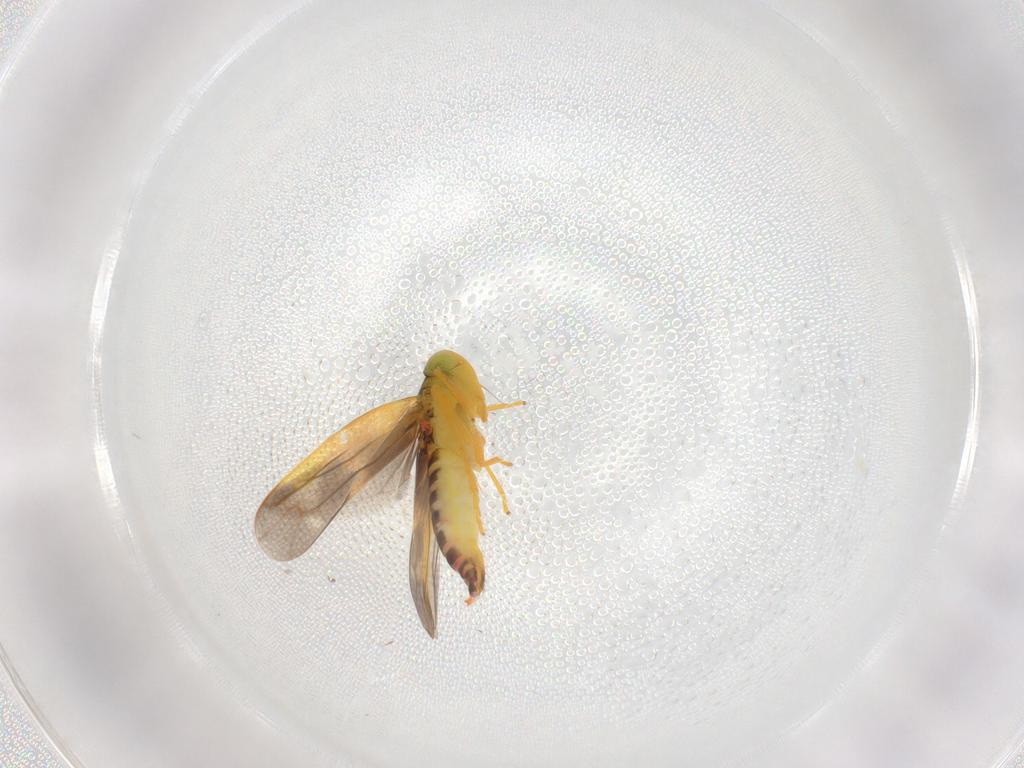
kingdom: Animalia
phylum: Arthropoda
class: Insecta
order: Hemiptera
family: Cicadellidae
